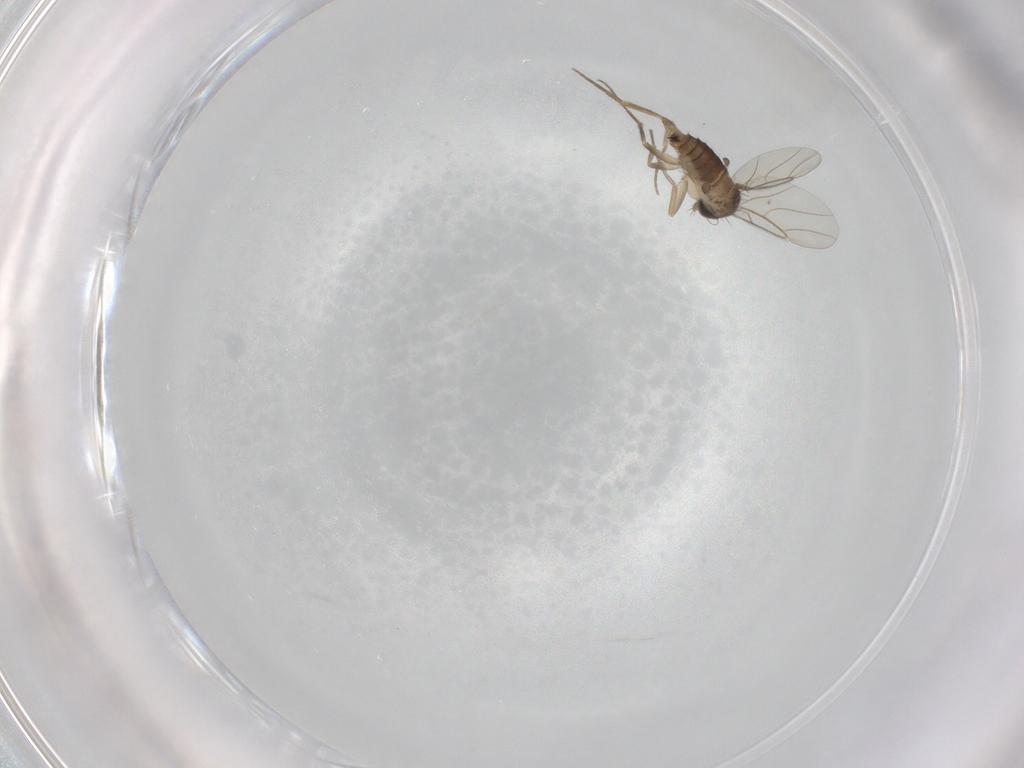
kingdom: Animalia
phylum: Arthropoda
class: Insecta
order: Diptera
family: Phoridae
